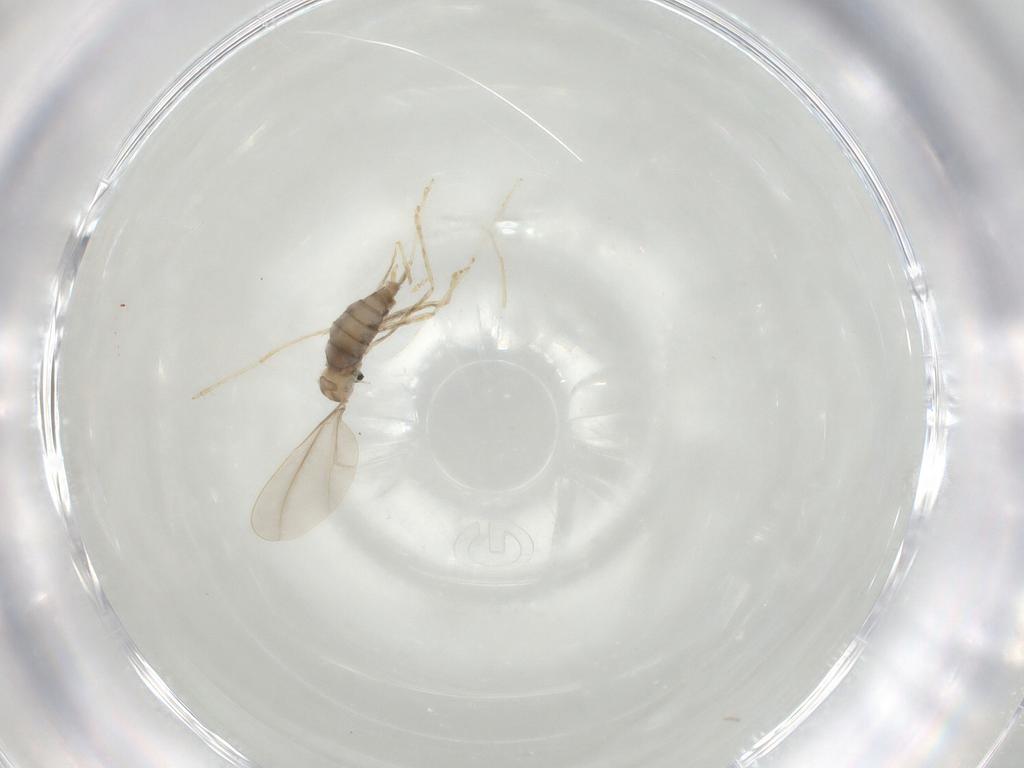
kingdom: Animalia
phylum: Arthropoda
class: Insecta
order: Diptera
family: Cecidomyiidae
